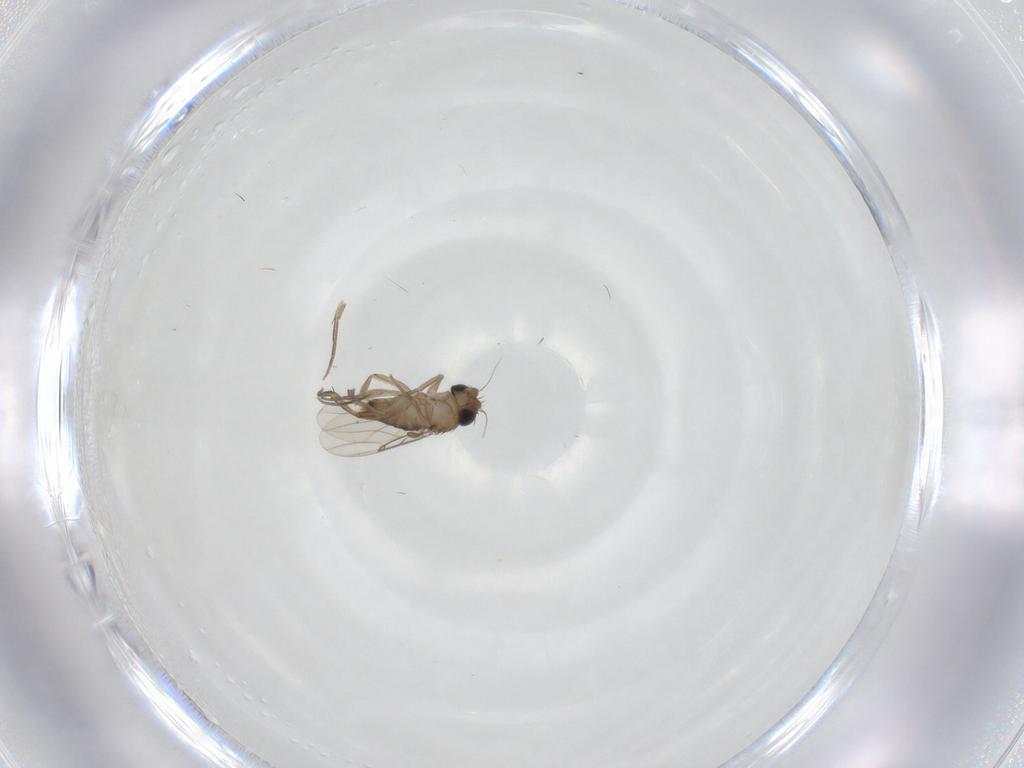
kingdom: Animalia
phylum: Arthropoda
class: Insecta
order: Diptera
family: Phoridae
